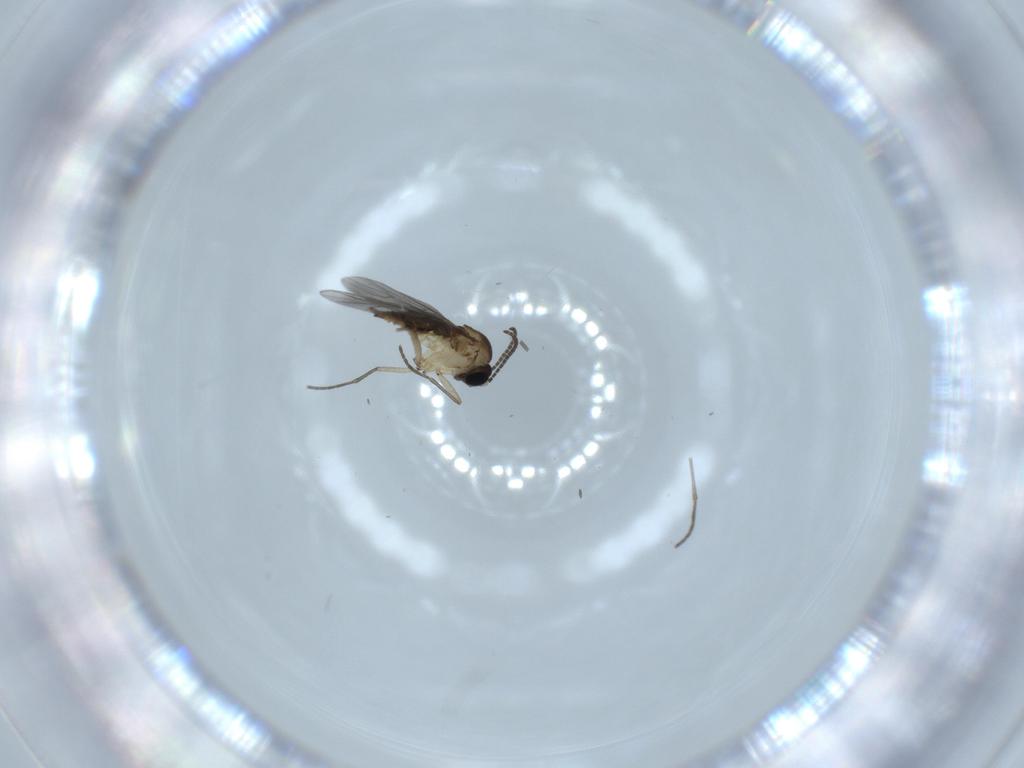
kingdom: Animalia
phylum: Arthropoda
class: Insecta
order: Diptera
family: Sciaridae
